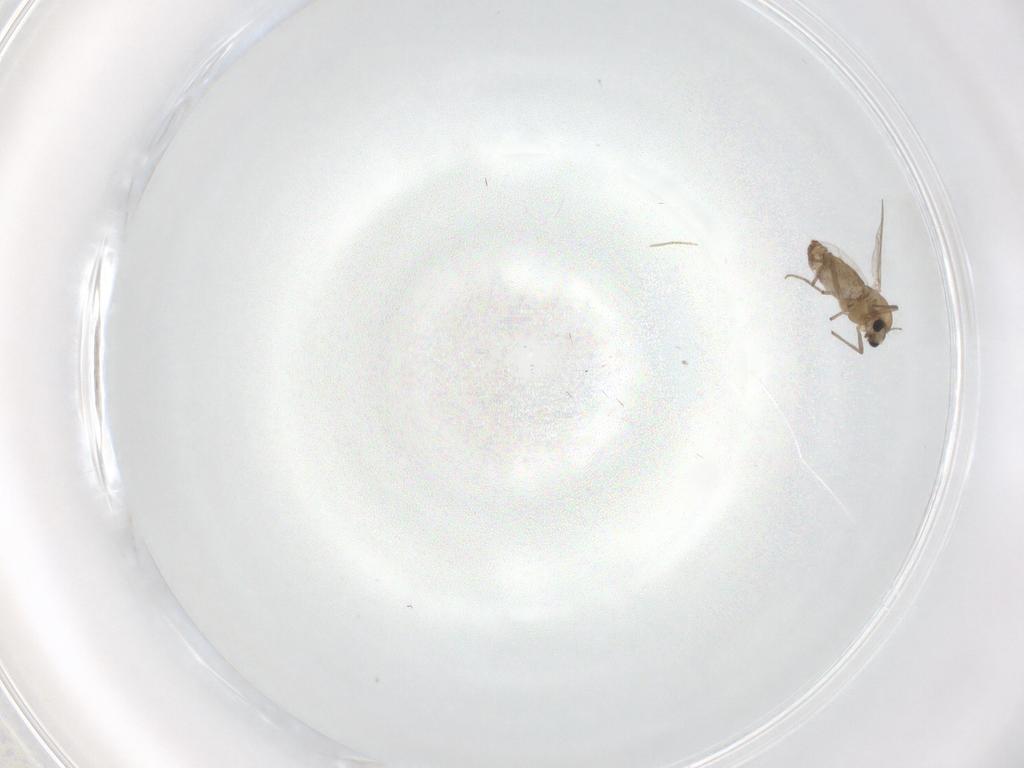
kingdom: Animalia
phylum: Arthropoda
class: Insecta
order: Diptera
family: Chironomidae
